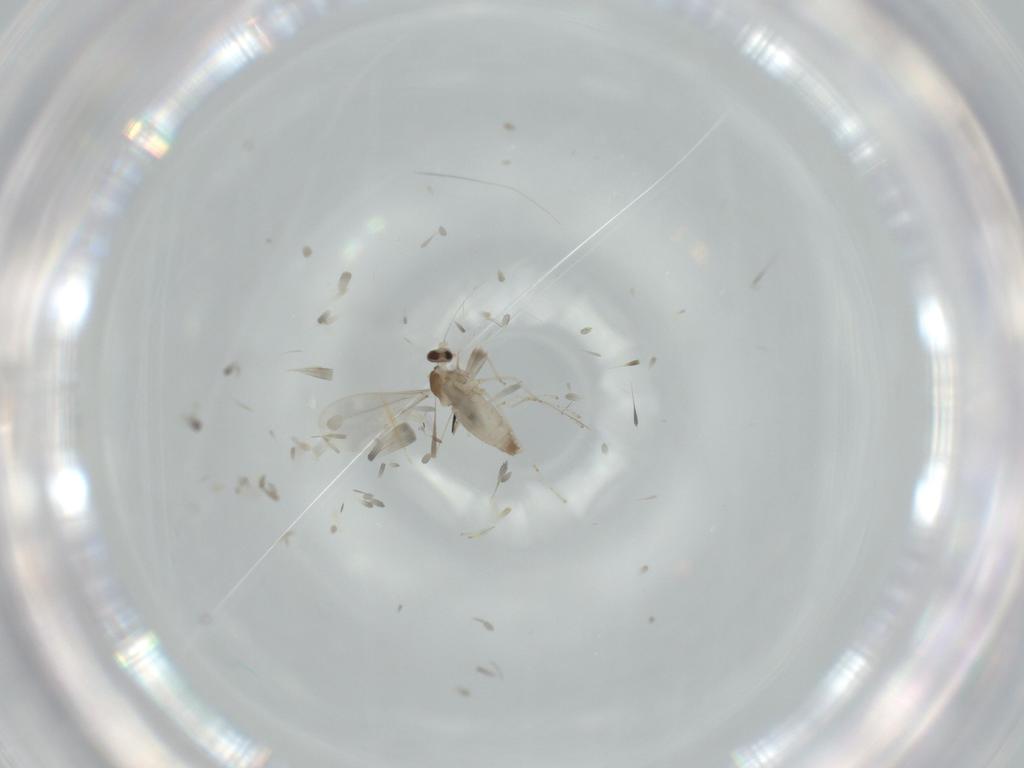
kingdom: Animalia
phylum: Arthropoda
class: Insecta
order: Diptera
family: Cecidomyiidae
